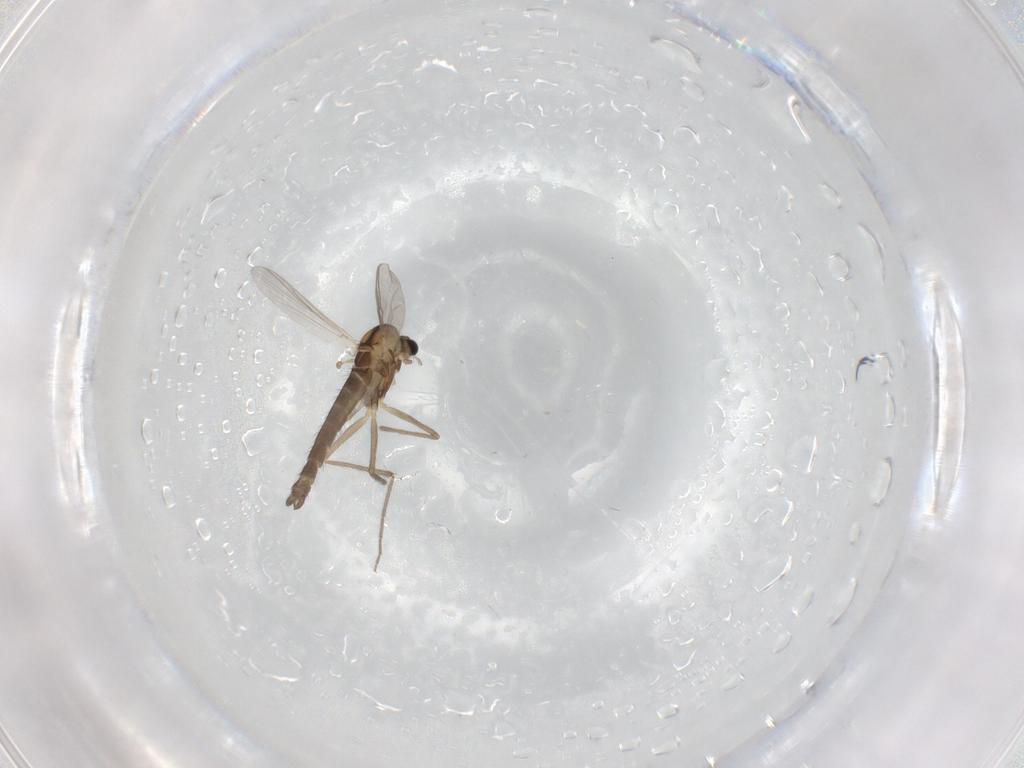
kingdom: Animalia
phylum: Arthropoda
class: Insecta
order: Diptera
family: Chironomidae
